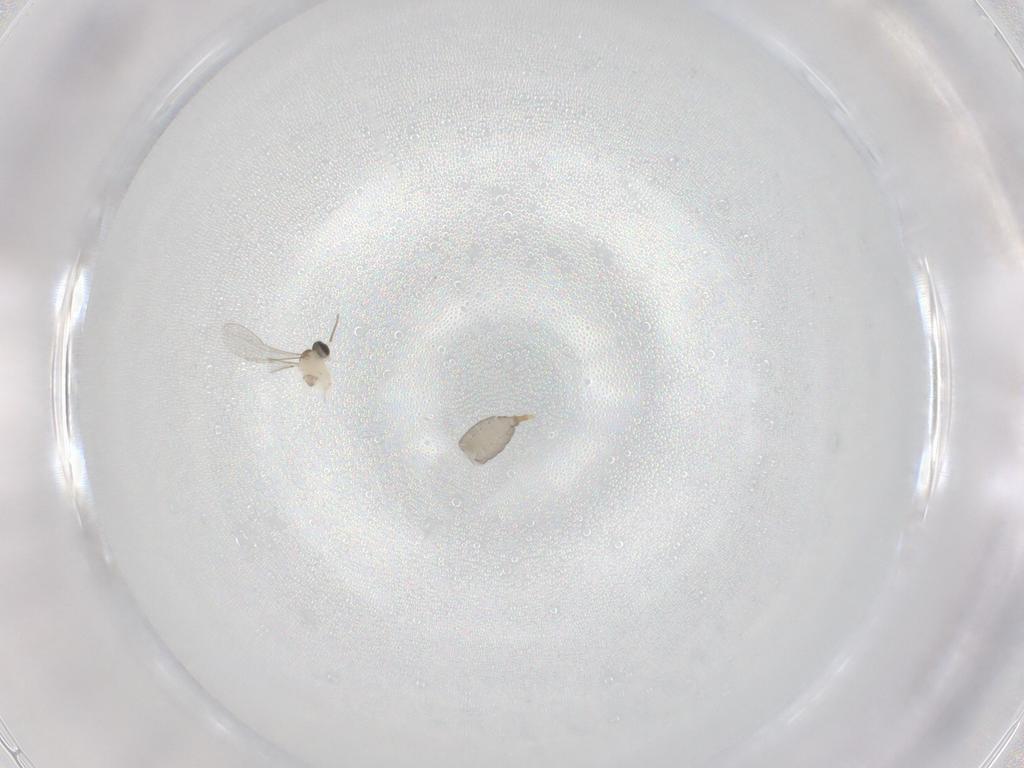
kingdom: Animalia
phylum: Arthropoda
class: Insecta
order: Diptera
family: Cecidomyiidae
